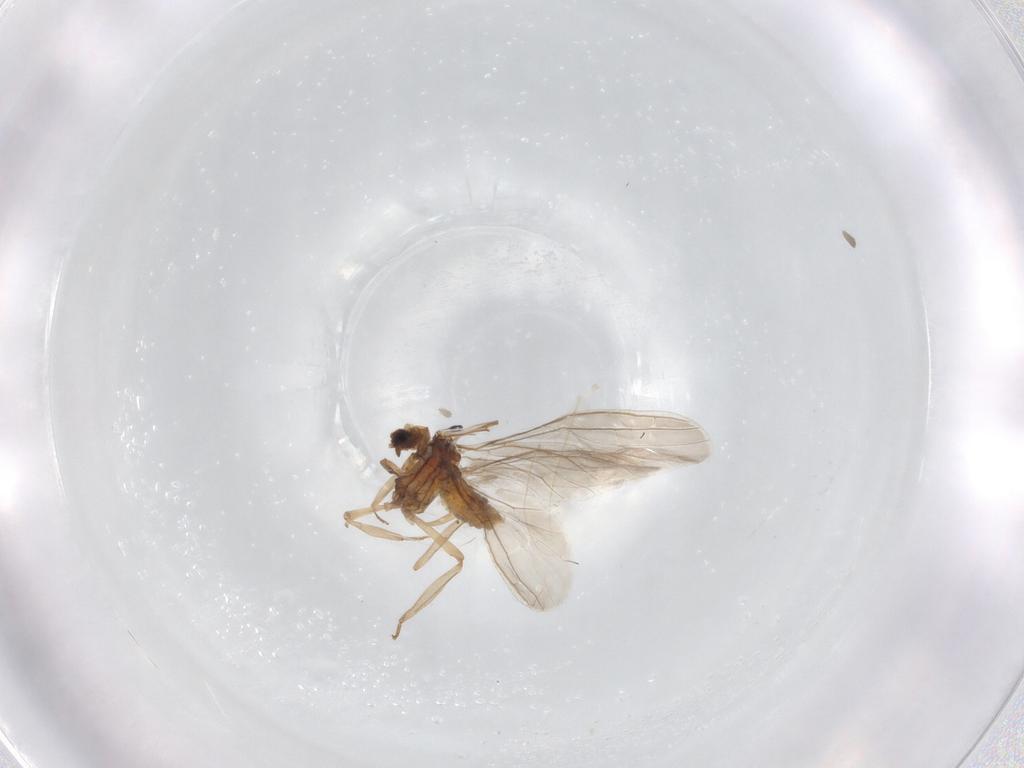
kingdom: Animalia
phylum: Arthropoda
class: Insecta
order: Neuroptera
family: Coniopterygidae
